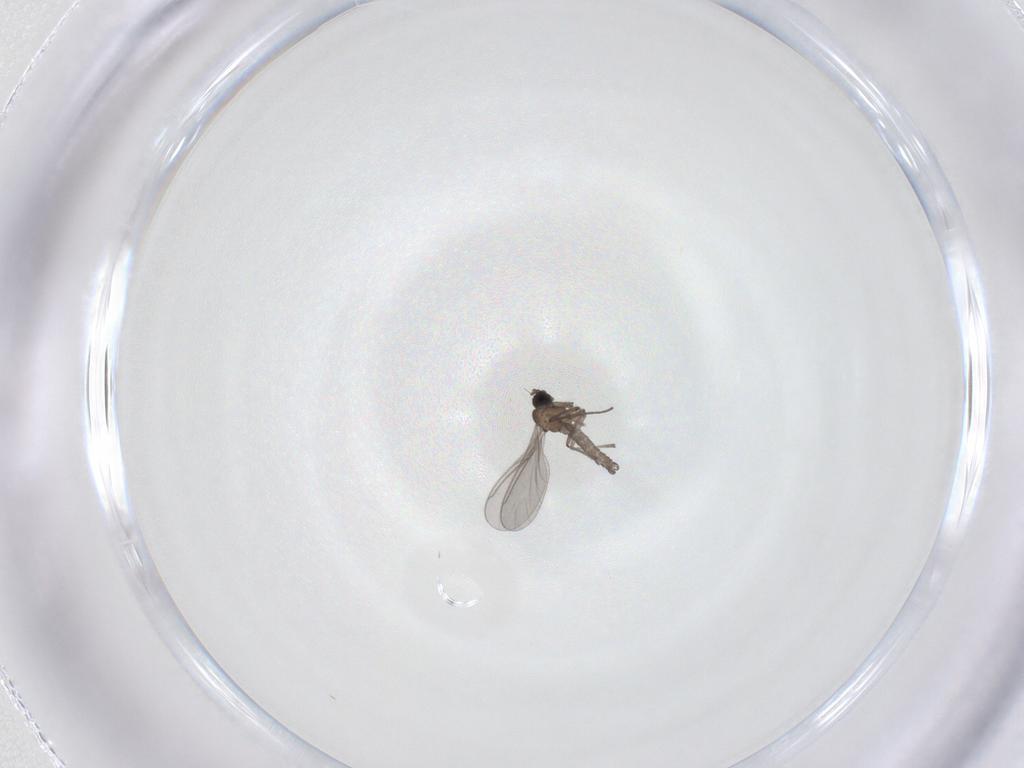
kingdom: Animalia
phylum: Arthropoda
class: Insecta
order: Diptera
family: Sciaridae
